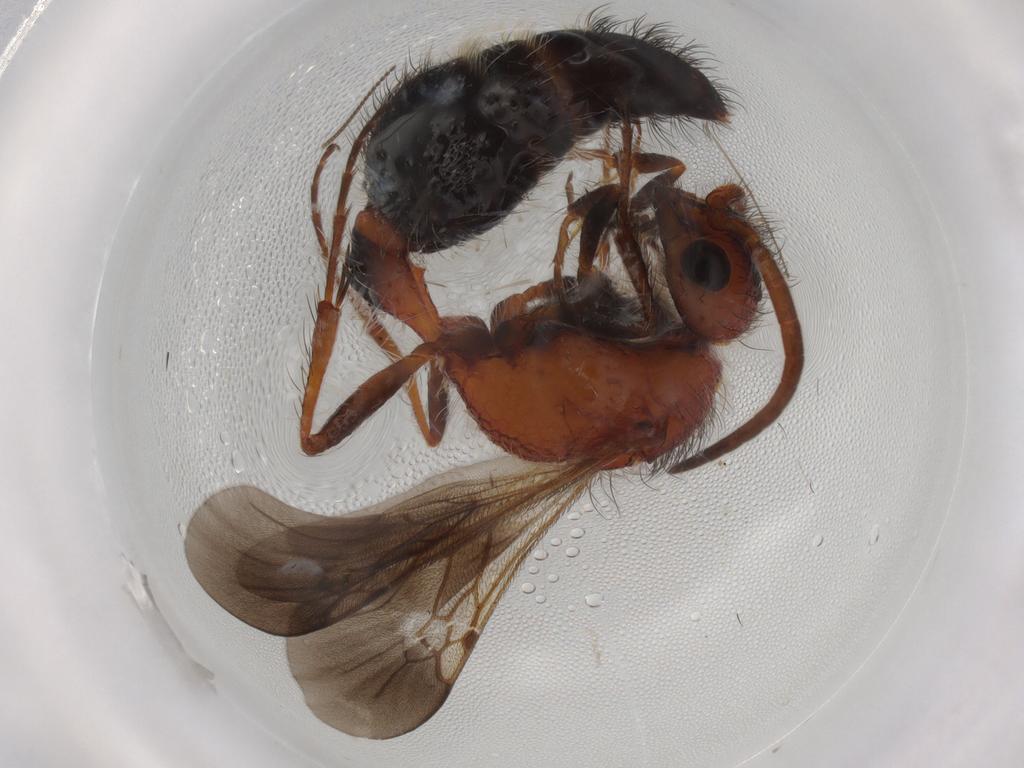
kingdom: Animalia
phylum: Arthropoda
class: Insecta
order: Hymenoptera
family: Mutillidae
